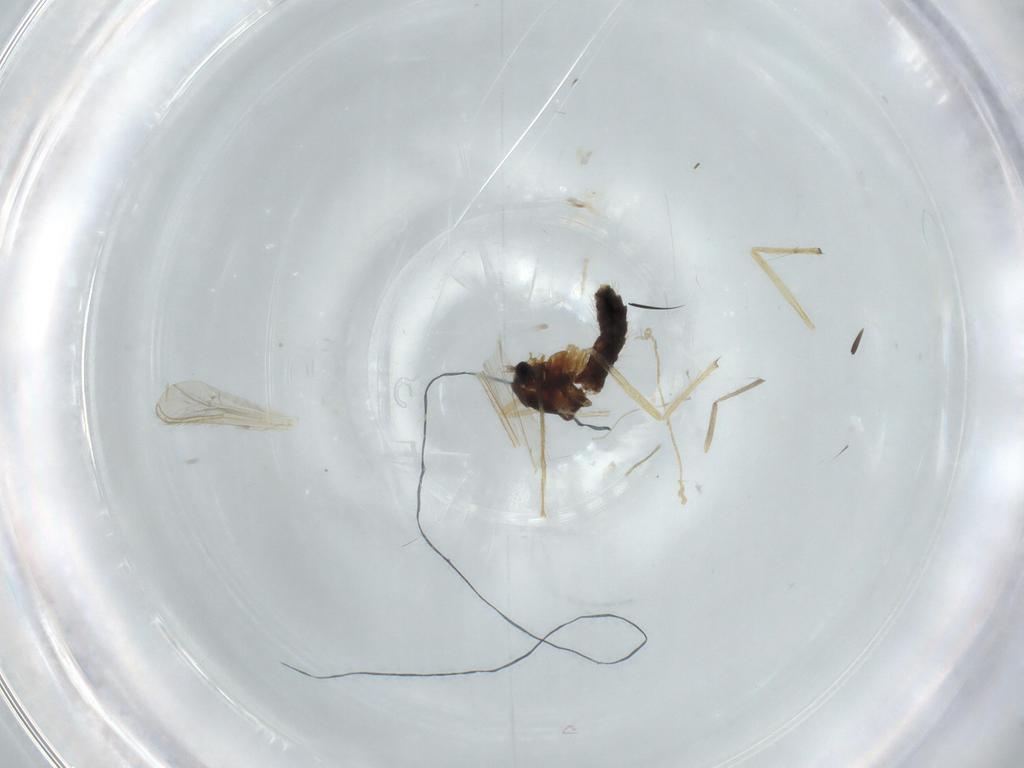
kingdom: Animalia
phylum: Arthropoda
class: Insecta
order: Diptera
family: Chironomidae
